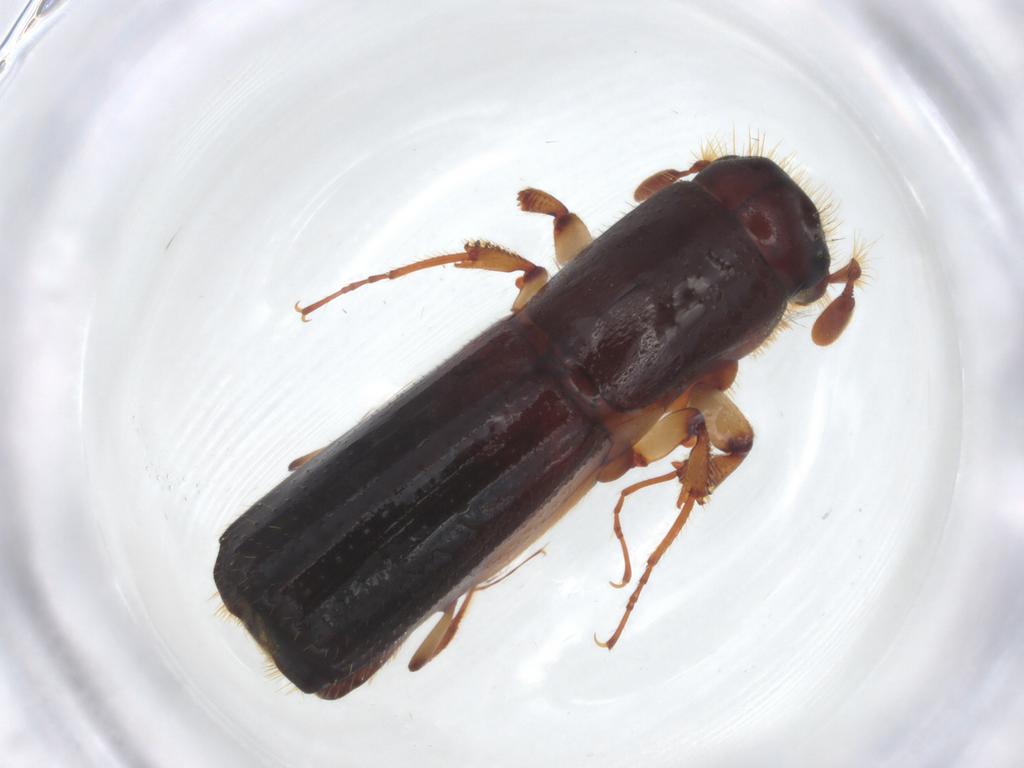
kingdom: Animalia
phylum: Arthropoda
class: Insecta
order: Coleoptera
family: Curculionidae
